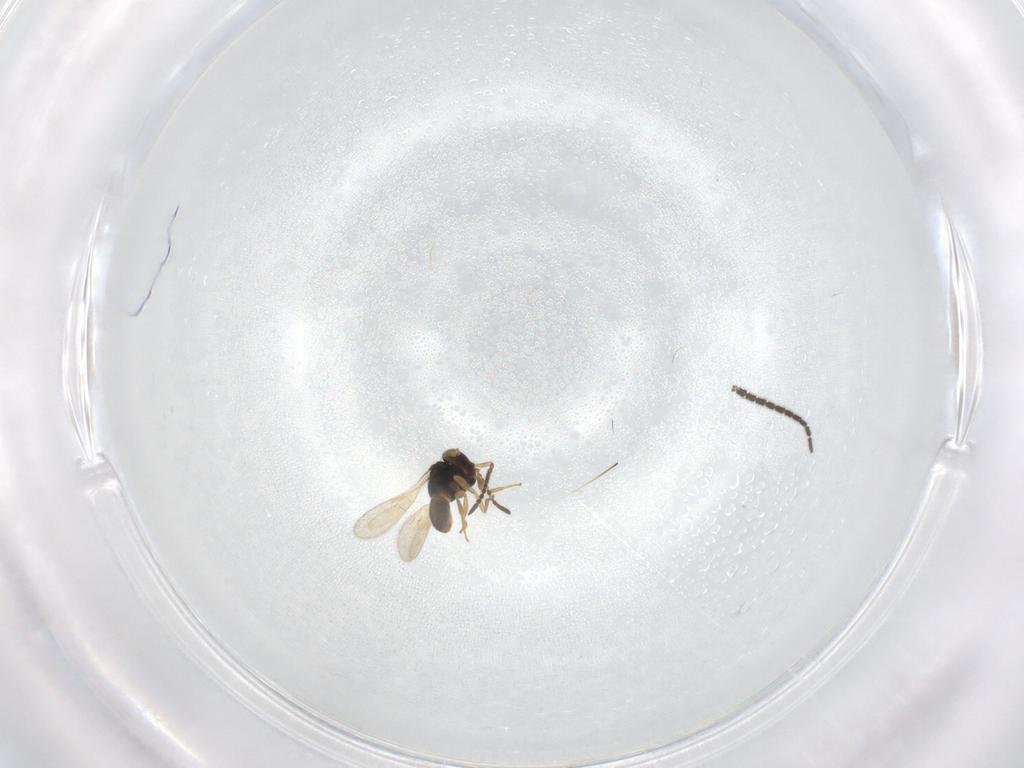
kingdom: Animalia
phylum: Arthropoda
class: Insecta
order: Hymenoptera
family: Scelionidae
